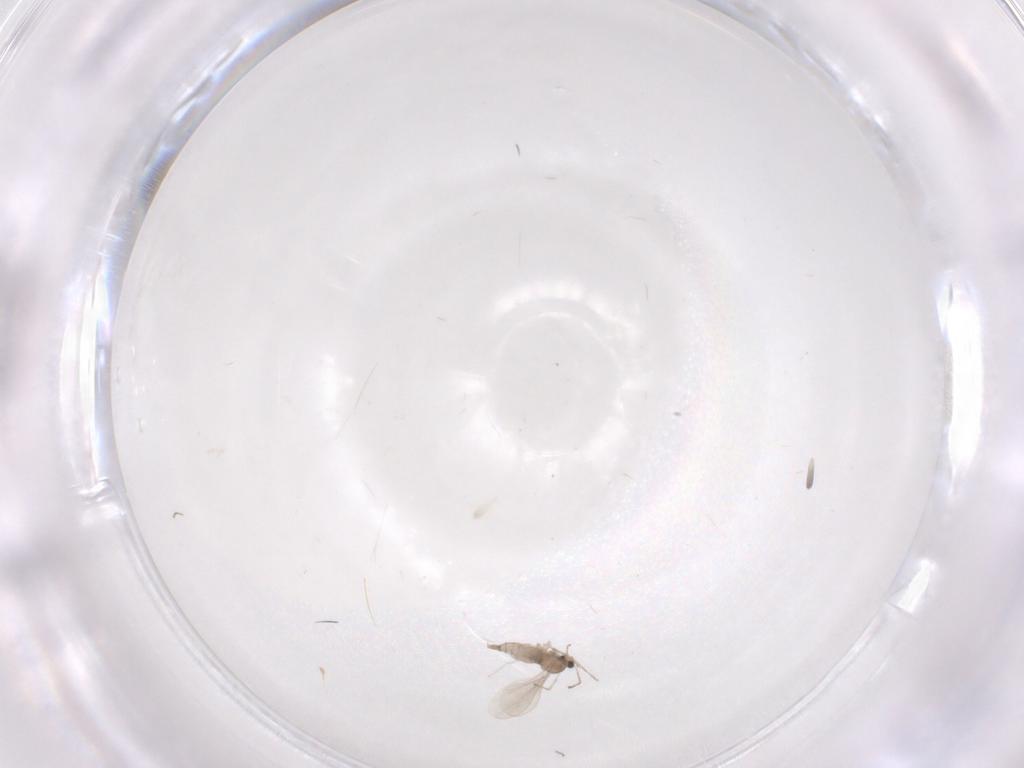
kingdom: Animalia
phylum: Arthropoda
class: Insecta
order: Diptera
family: Cecidomyiidae
